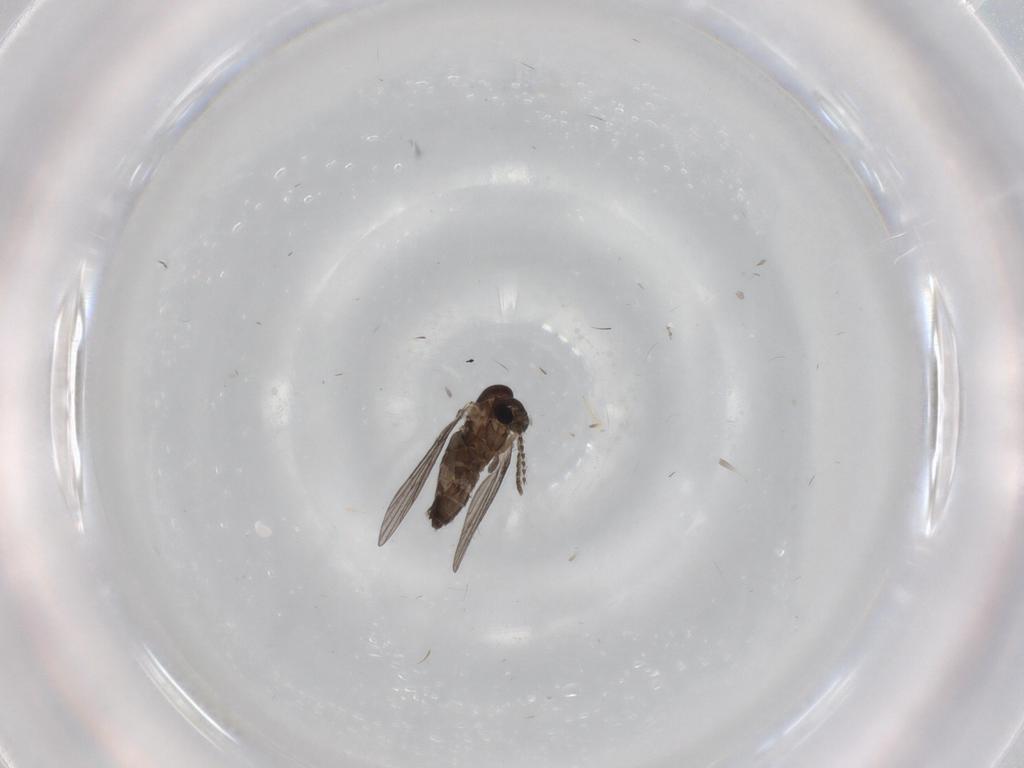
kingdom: Animalia
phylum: Arthropoda
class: Insecta
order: Diptera
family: Cecidomyiidae
